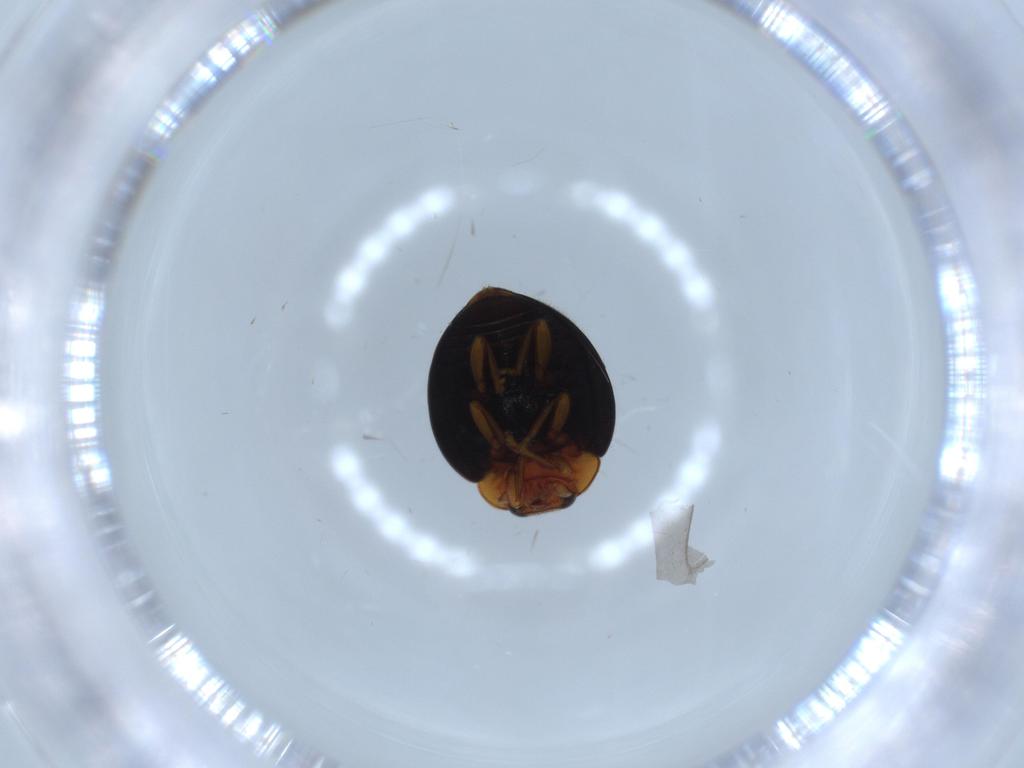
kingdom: Animalia
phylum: Arthropoda
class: Insecta
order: Coleoptera
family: Coccinellidae
